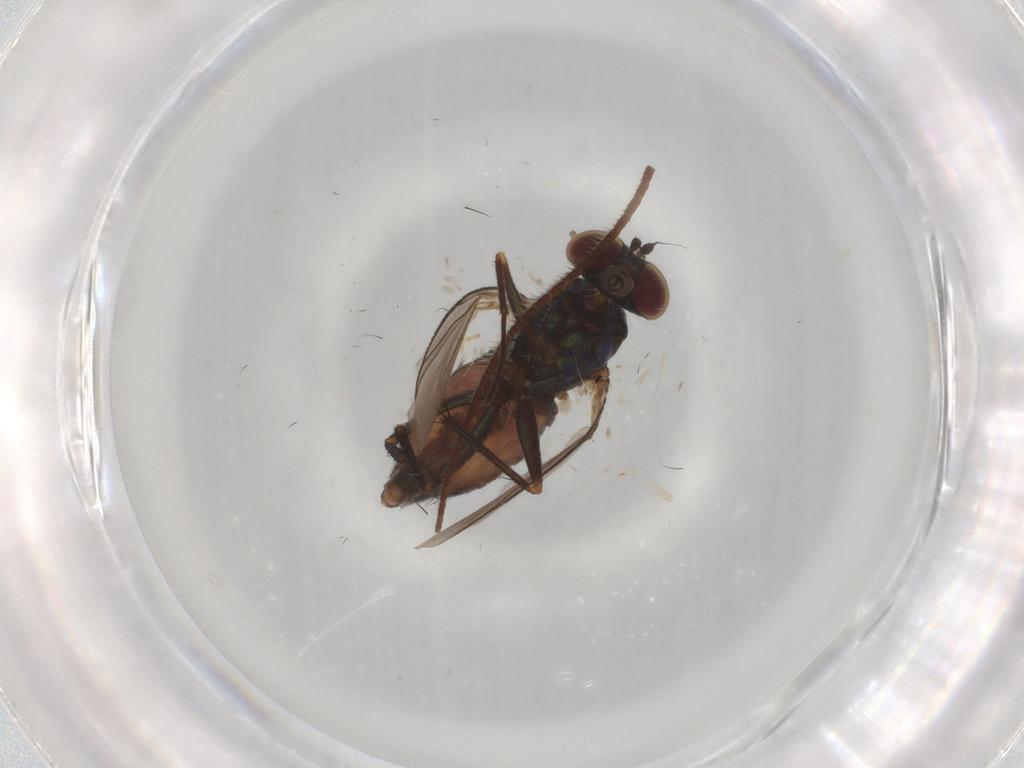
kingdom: Animalia
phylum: Arthropoda
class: Insecta
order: Diptera
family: Dolichopodidae
